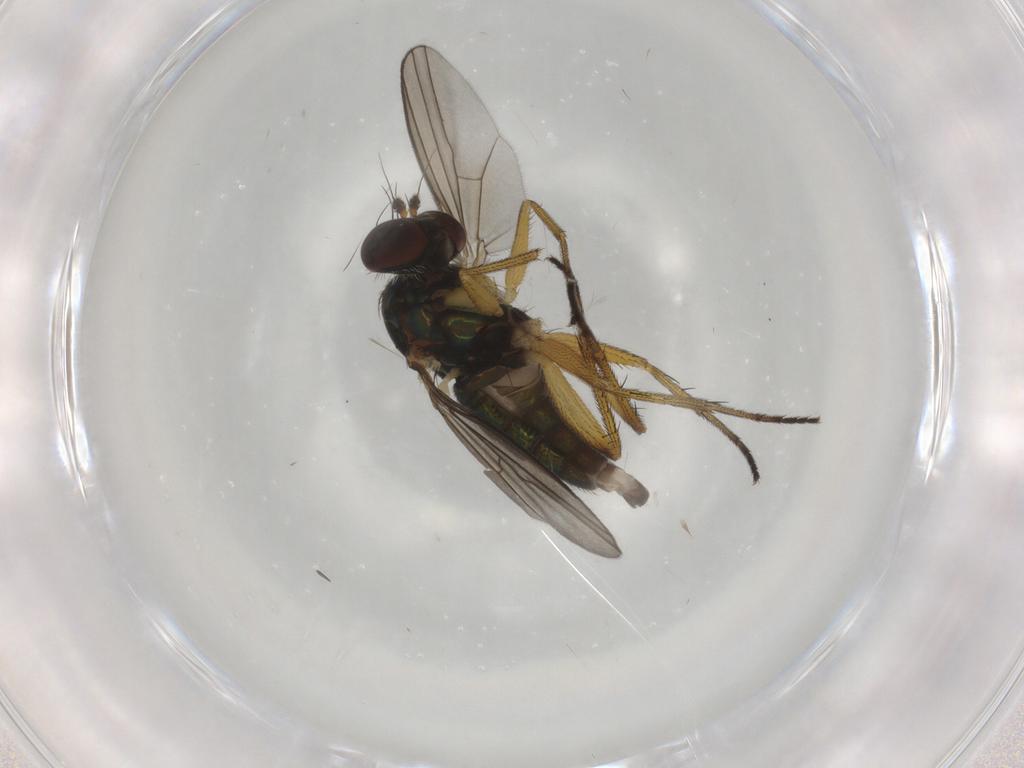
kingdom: Animalia
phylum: Arthropoda
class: Insecta
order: Diptera
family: Dolichopodidae
